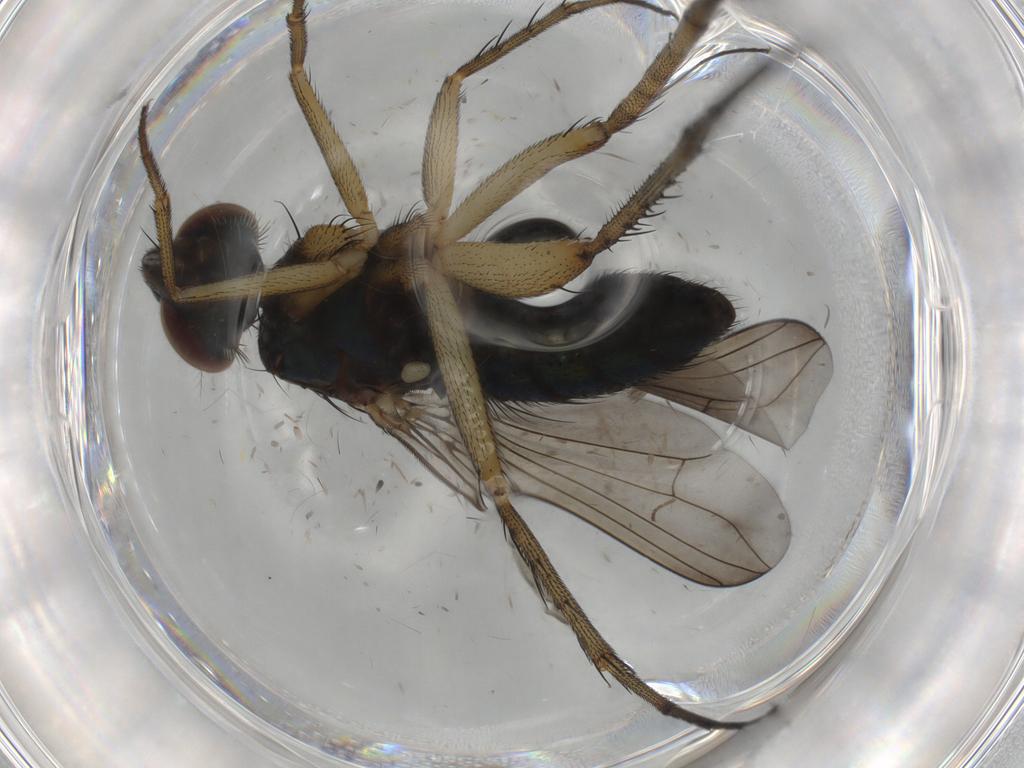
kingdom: Animalia
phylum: Arthropoda
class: Insecta
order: Diptera
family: Dolichopodidae
